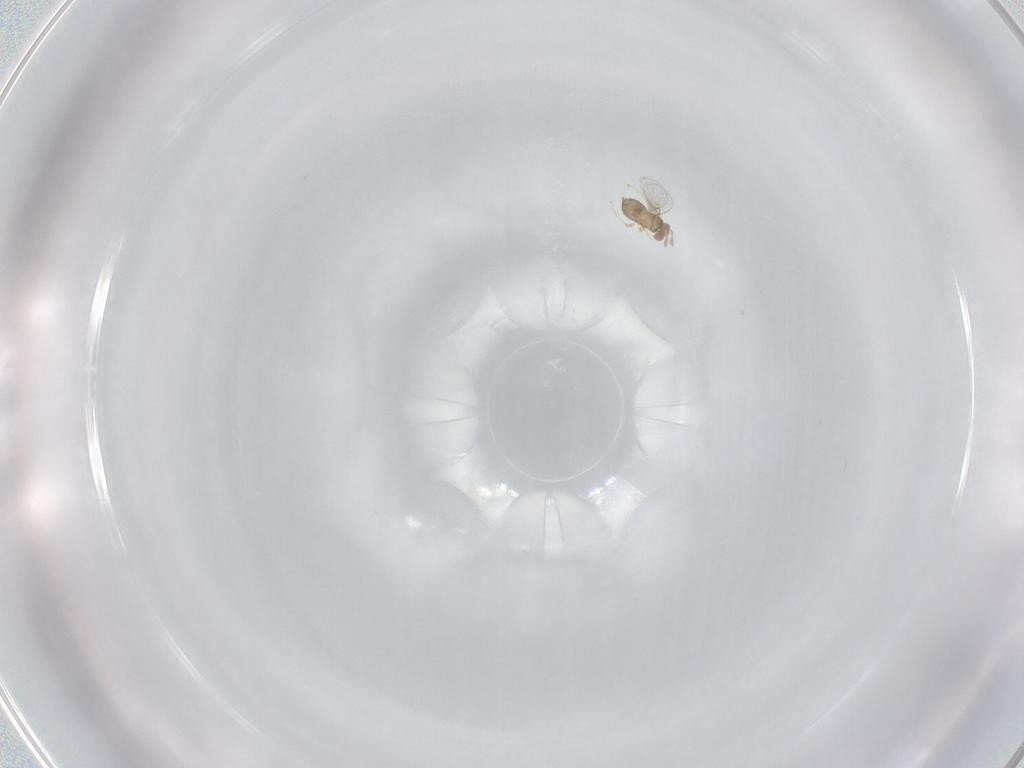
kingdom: Animalia
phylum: Arthropoda
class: Insecta
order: Hymenoptera
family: Trichogrammatidae
